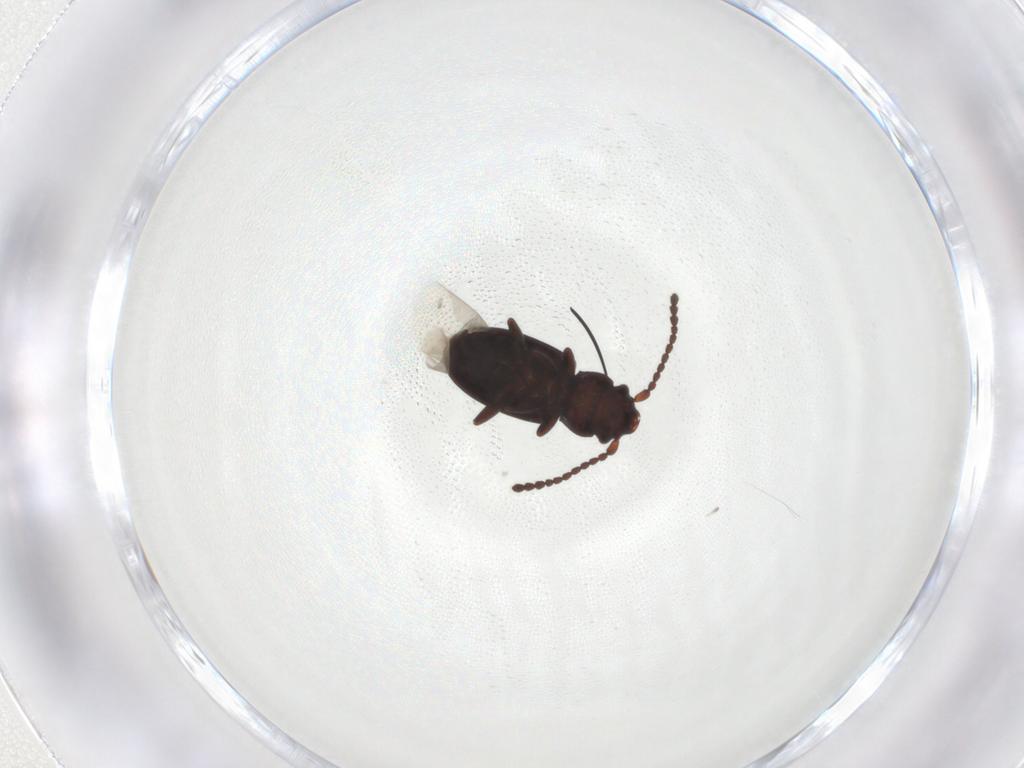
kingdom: Animalia
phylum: Arthropoda
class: Insecta
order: Coleoptera
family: Laemophloeidae
